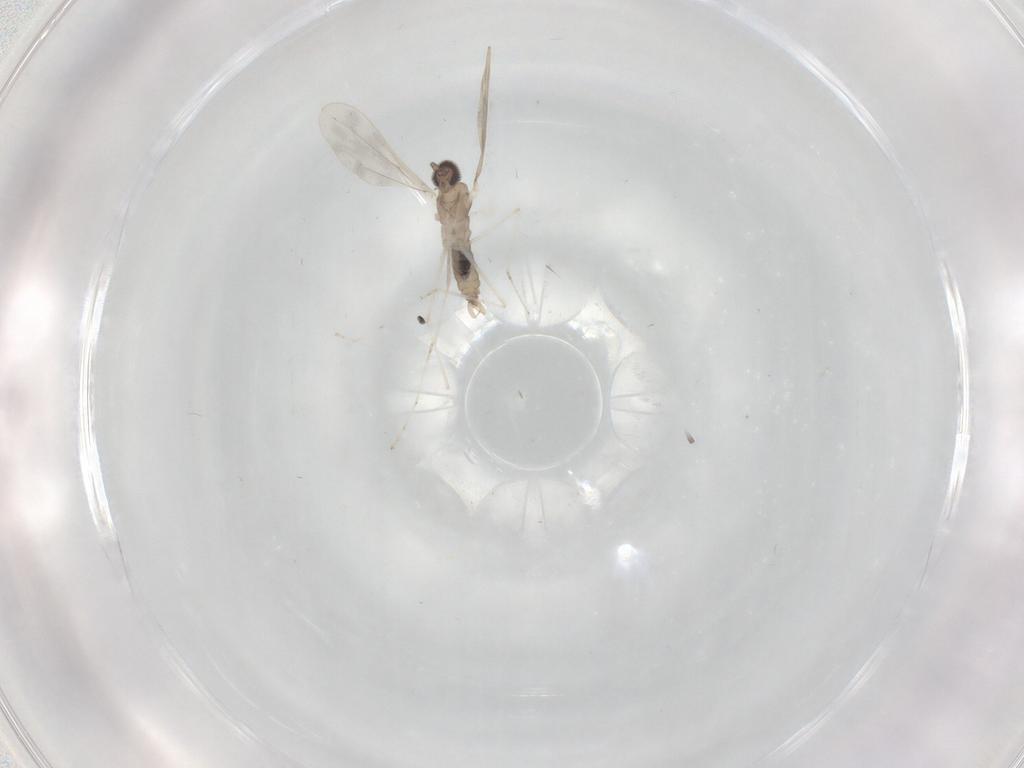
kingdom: Animalia
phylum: Arthropoda
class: Insecta
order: Diptera
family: Cecidomyiidae
